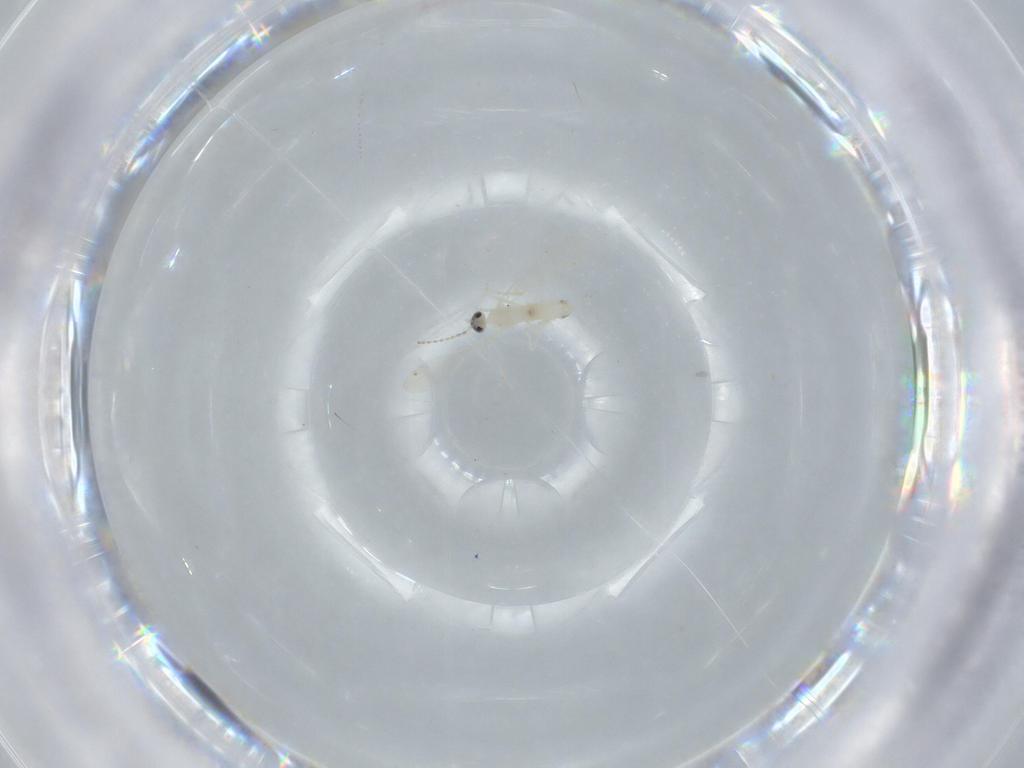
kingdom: Animalia
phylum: Arthropoda
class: Insecta
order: Diptera
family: Cecidomyiidae
